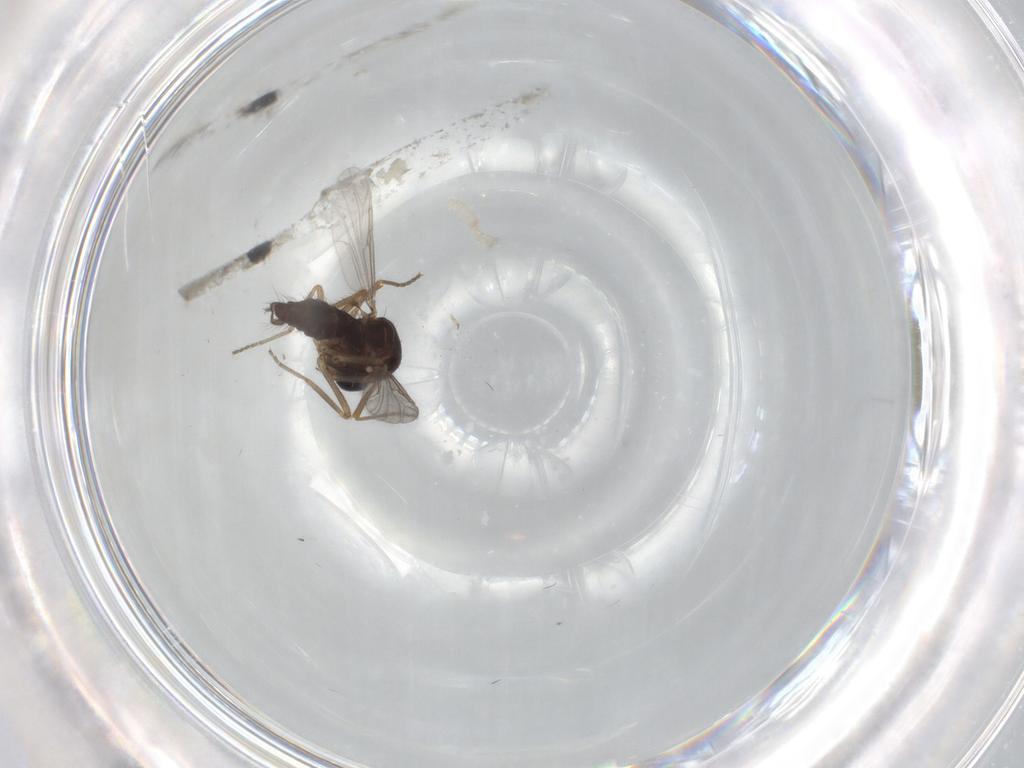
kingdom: Animalia
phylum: Arthropoda
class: Insecta
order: Diptera
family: Ceratopogonidae
